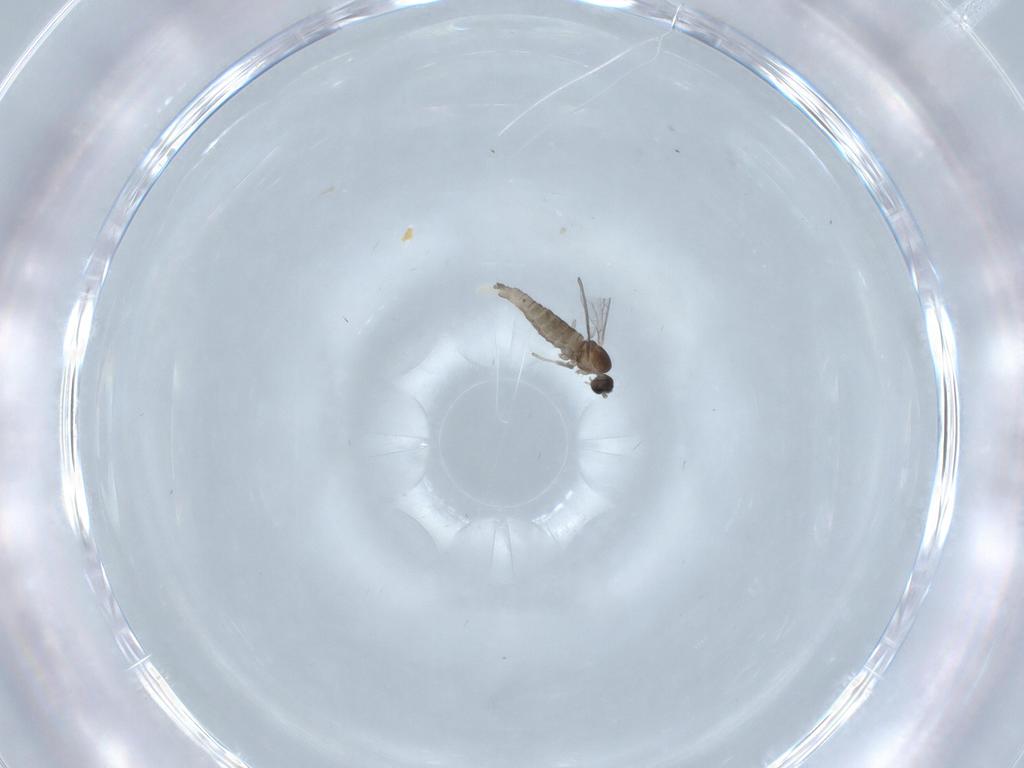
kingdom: Animalia
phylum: Arthropoda
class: Insecta
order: Diptera
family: Cecidomyiidae
